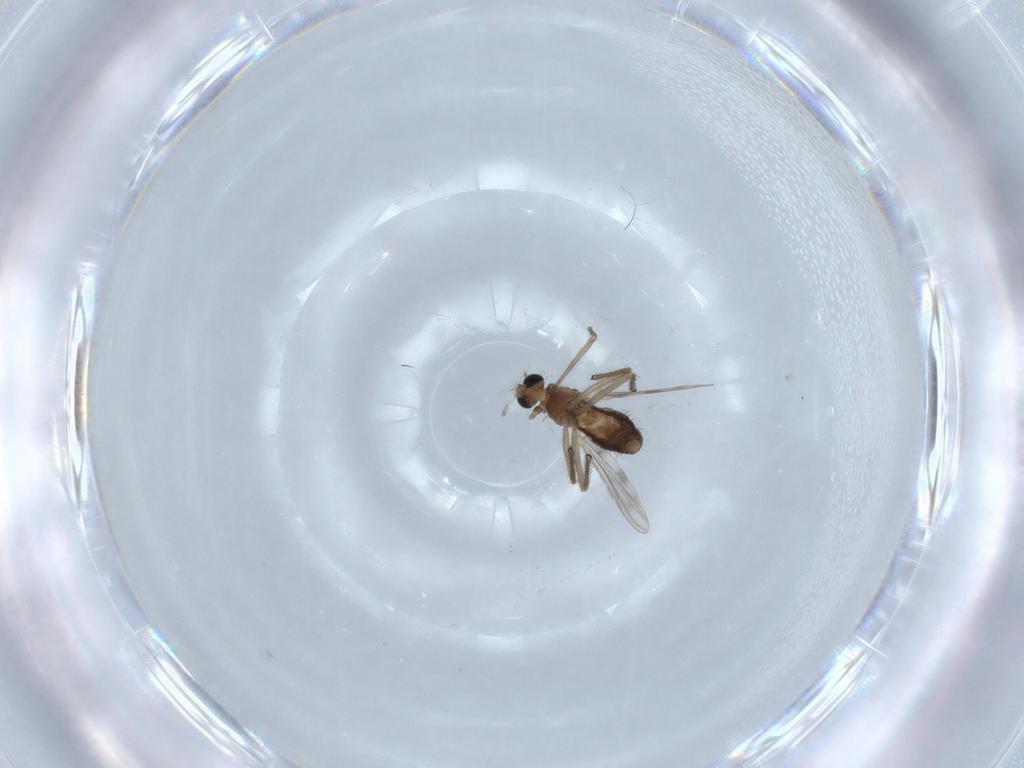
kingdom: Animalia
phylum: Arthropoda
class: Insecta
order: Diptera
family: Chironomidae
